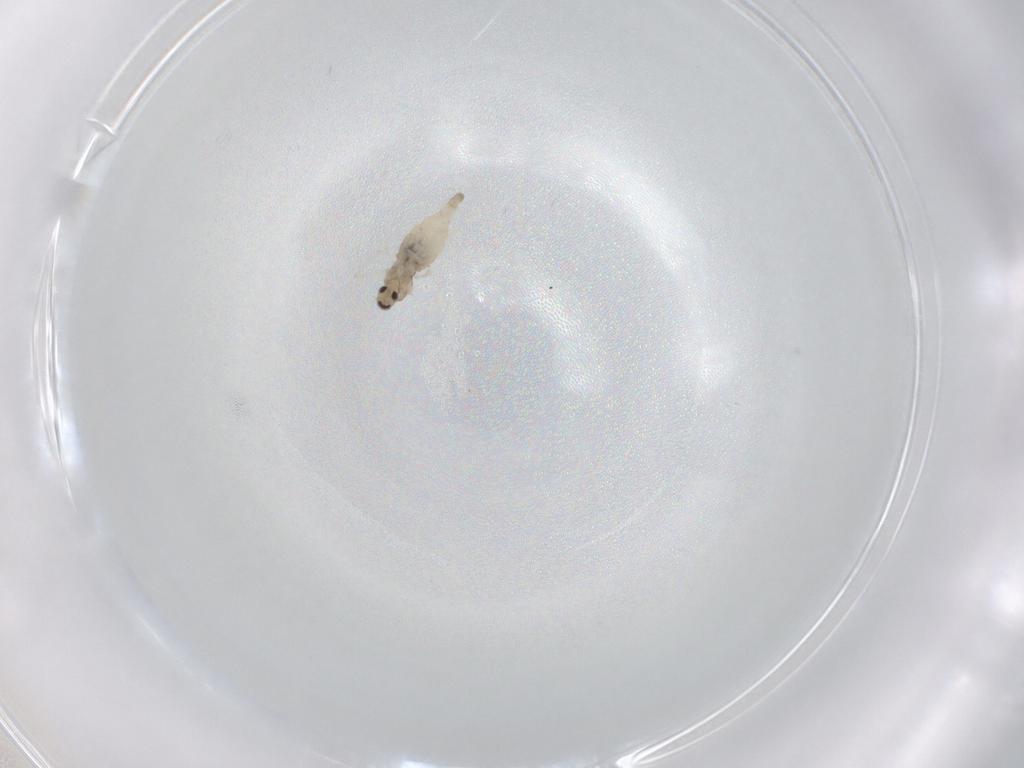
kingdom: Animalia
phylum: Arthropoda
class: Insecta
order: Diptera
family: Cecidomyiidae
